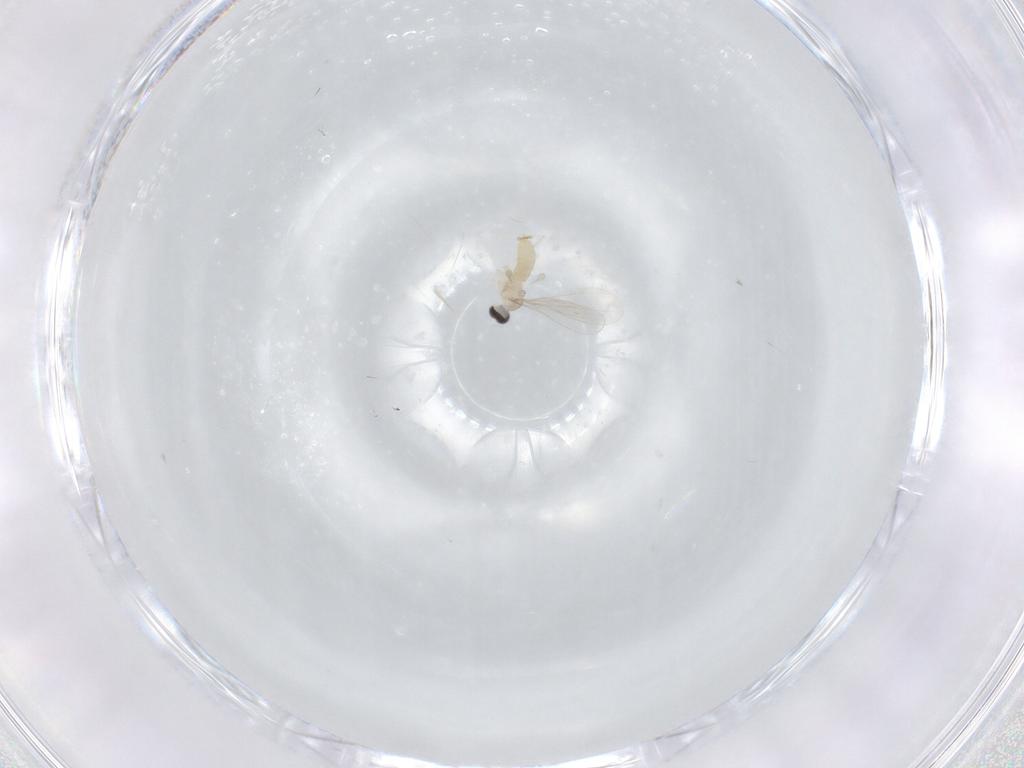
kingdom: Animalia
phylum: Arthropoda
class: Insecta
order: Diptera
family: Cecidomyiidae
